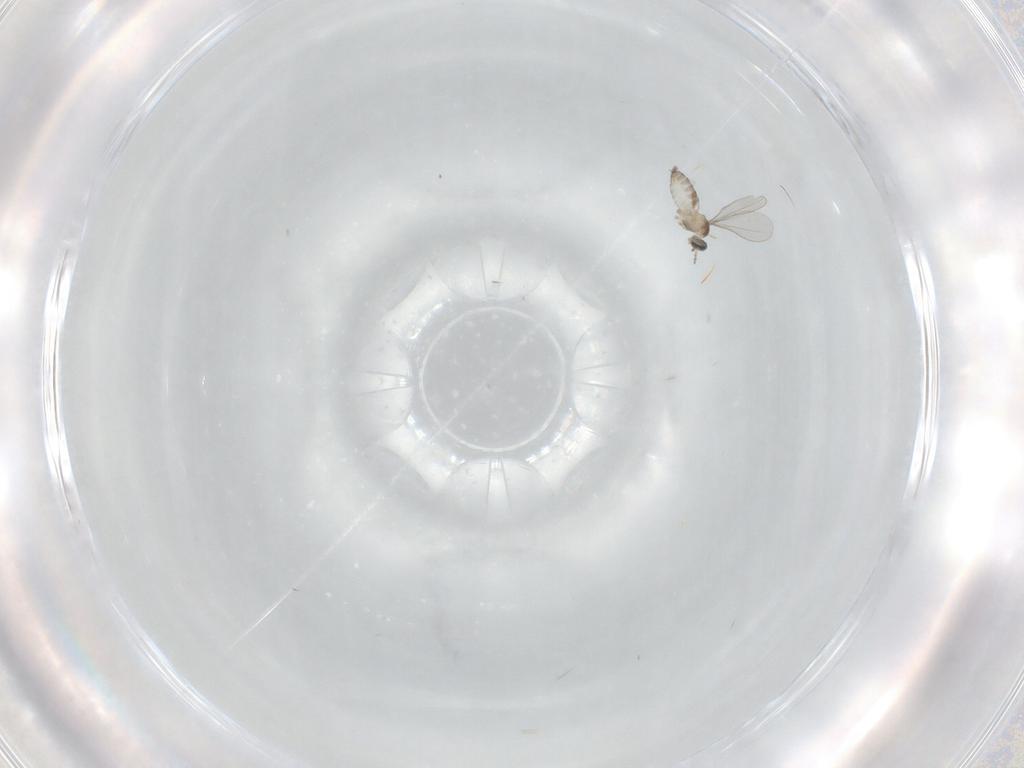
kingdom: Animalia
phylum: Arthropoda
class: Insecta
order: Diptera
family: Cecidomyiidae
